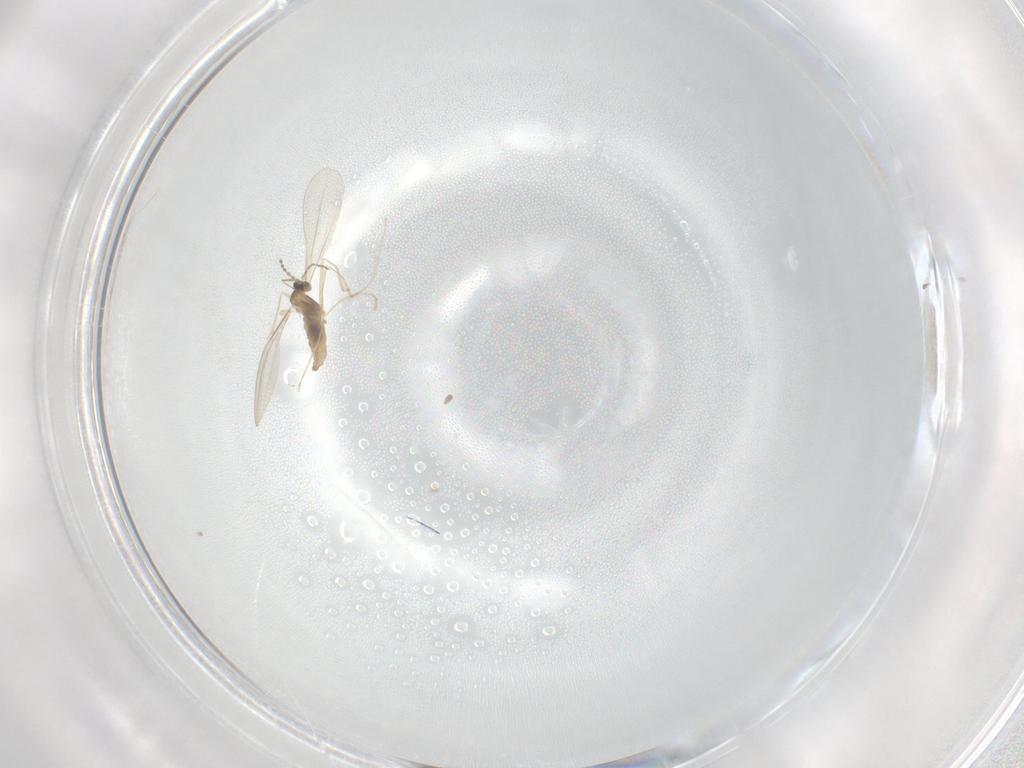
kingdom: Animalia
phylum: Arthropoda
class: Insecta
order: Diptera
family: Cecidomyiidae
